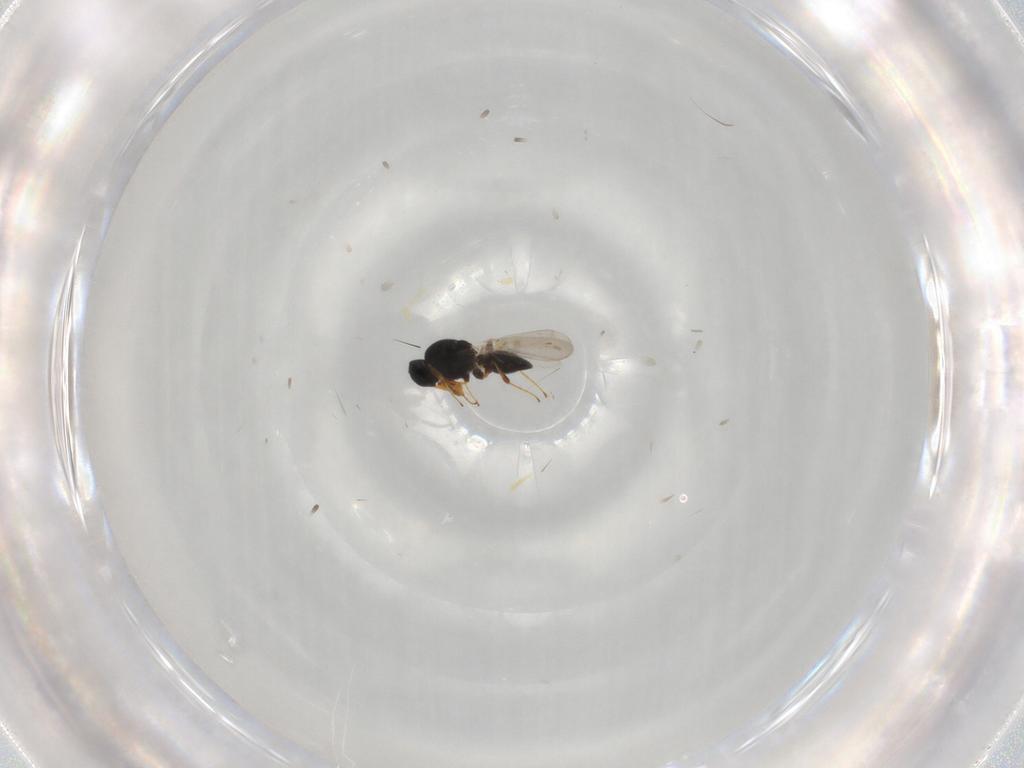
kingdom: Animalia
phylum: Arthropoda
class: Insecta
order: Hymenoptera
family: Platygastridae
